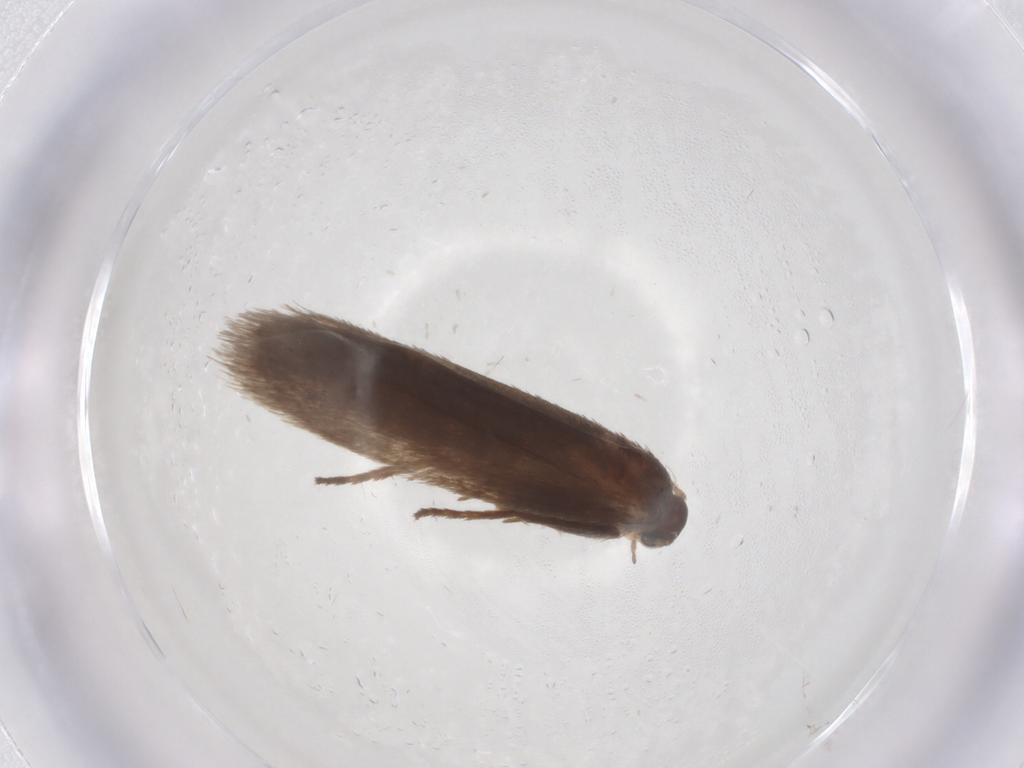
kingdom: Animalia
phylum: Arthropoda
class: Insecta
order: Lepidoptera
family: Limacodidae
